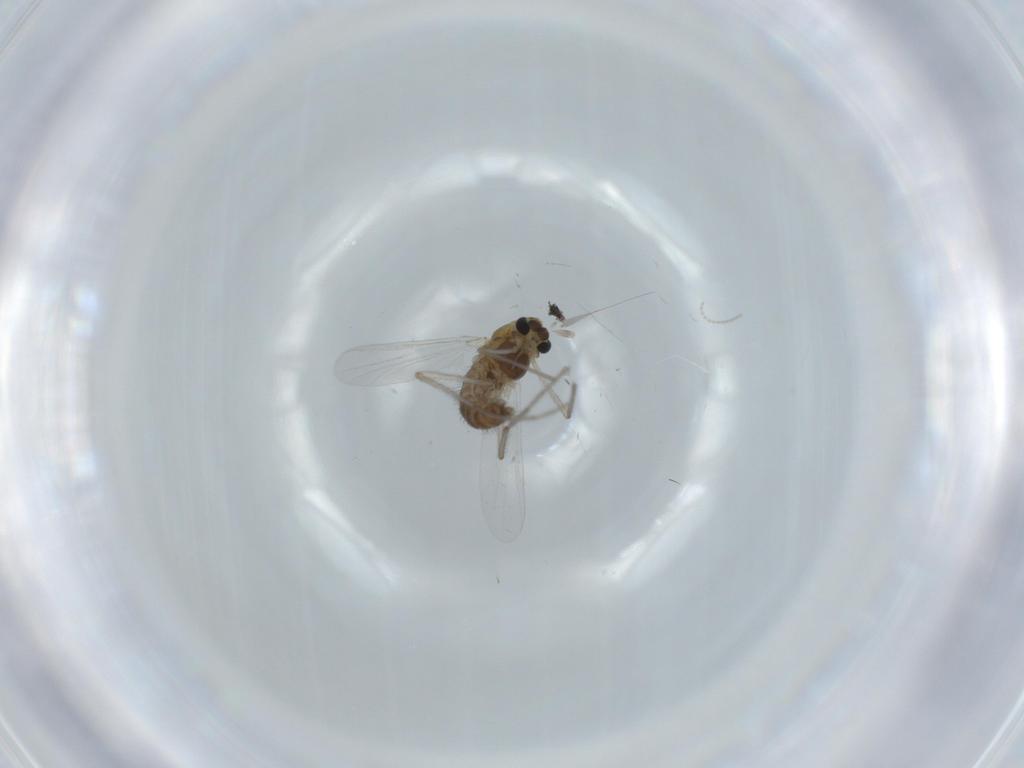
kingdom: Animalia
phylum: Arthropoda
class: Insecta
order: Diptera
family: Chironomidae
